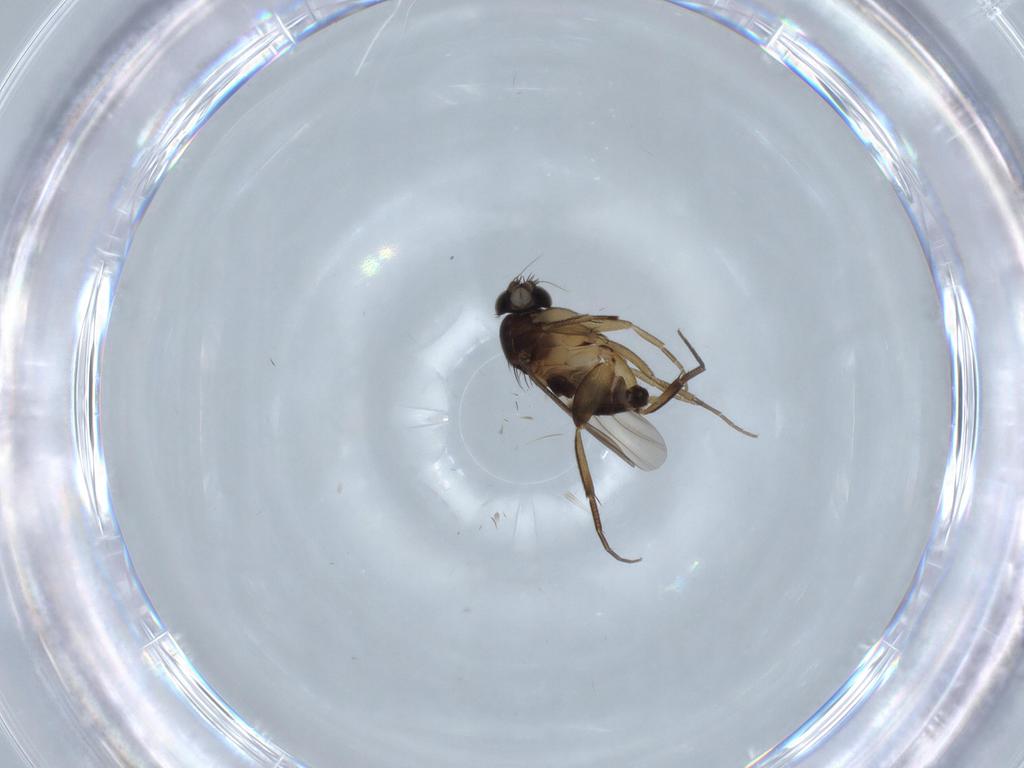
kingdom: Animalia
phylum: Arthropoda
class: Insecta
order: Diptera
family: Phoridae
